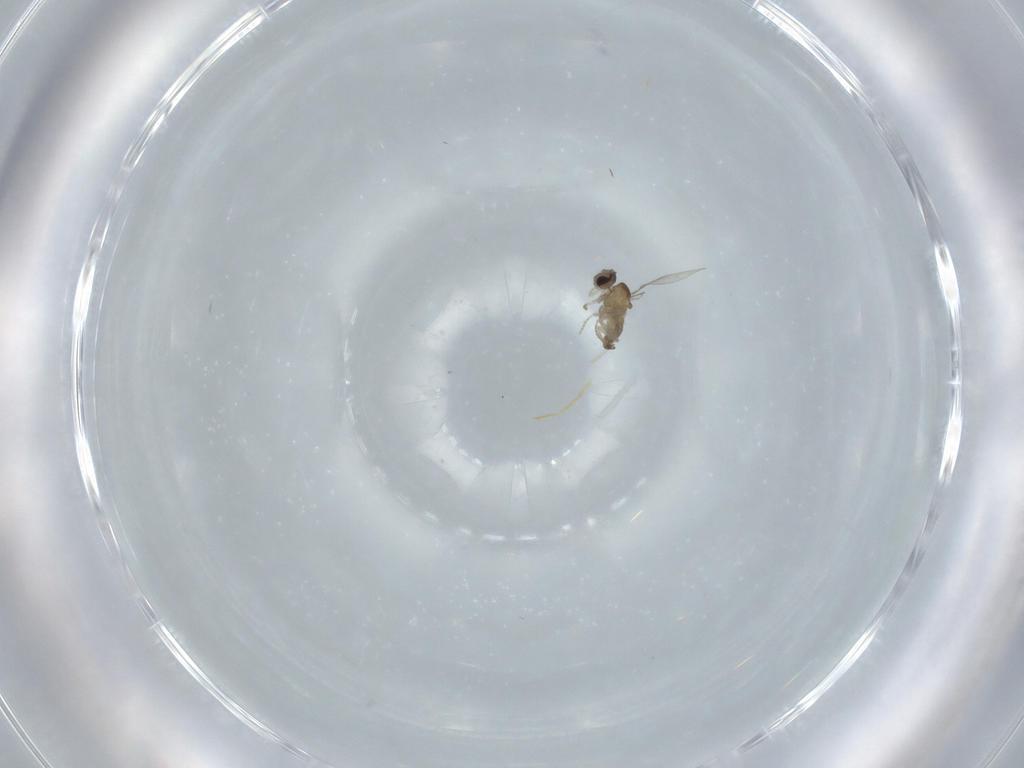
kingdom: Animalia
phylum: Arthropoda
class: Insecta
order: Diptera
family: Cecidomyiidae
